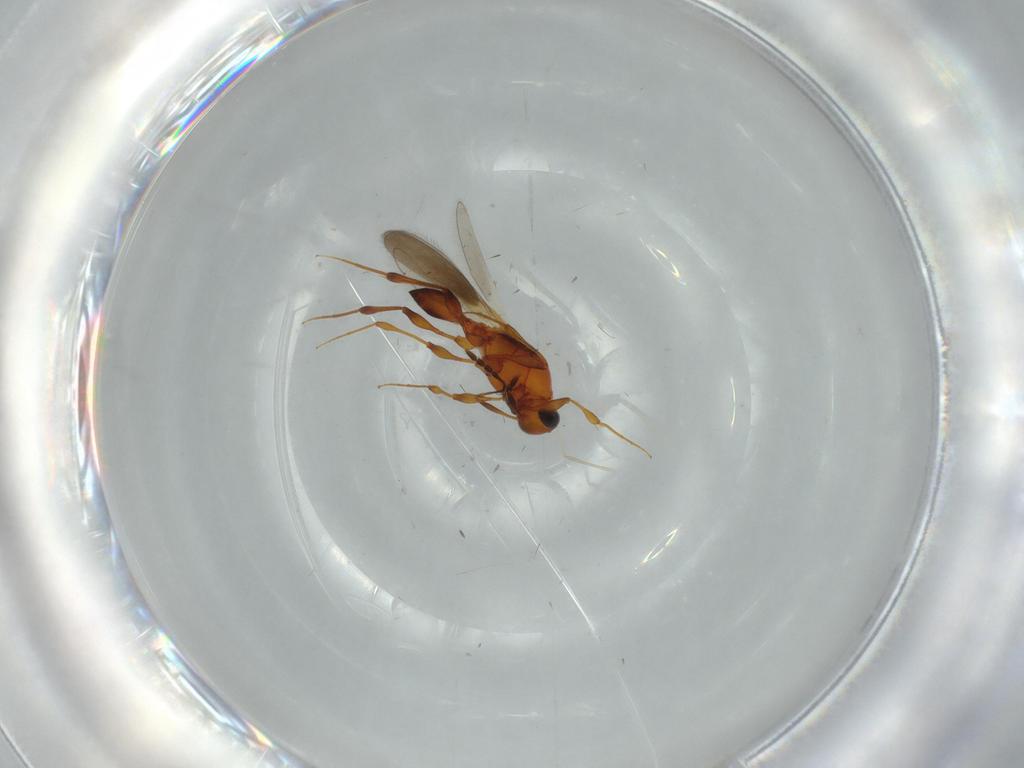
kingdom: Animalia
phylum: Arthropoda
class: Insecta
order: Hymenoptera
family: Platygastridae
